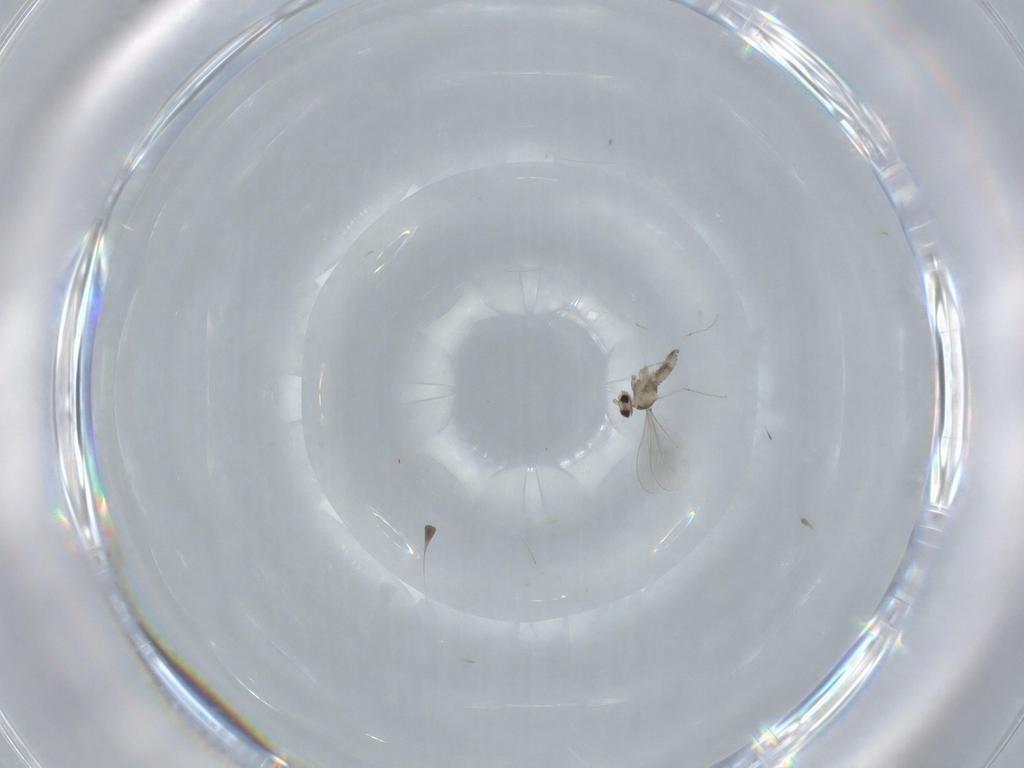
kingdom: Animalia
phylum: Arthropoda
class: Insecta
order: Diptera
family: Cecidomyiidae
